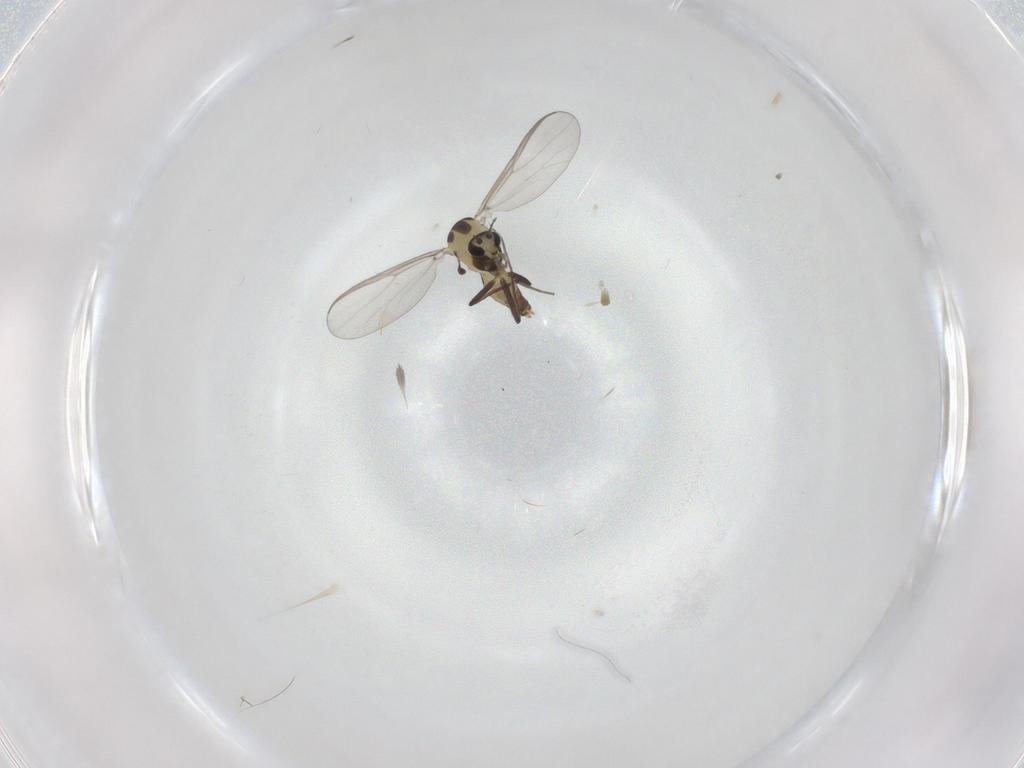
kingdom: Animalia
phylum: Arthropoda
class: Insecta
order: Diptera
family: Chironomidae
